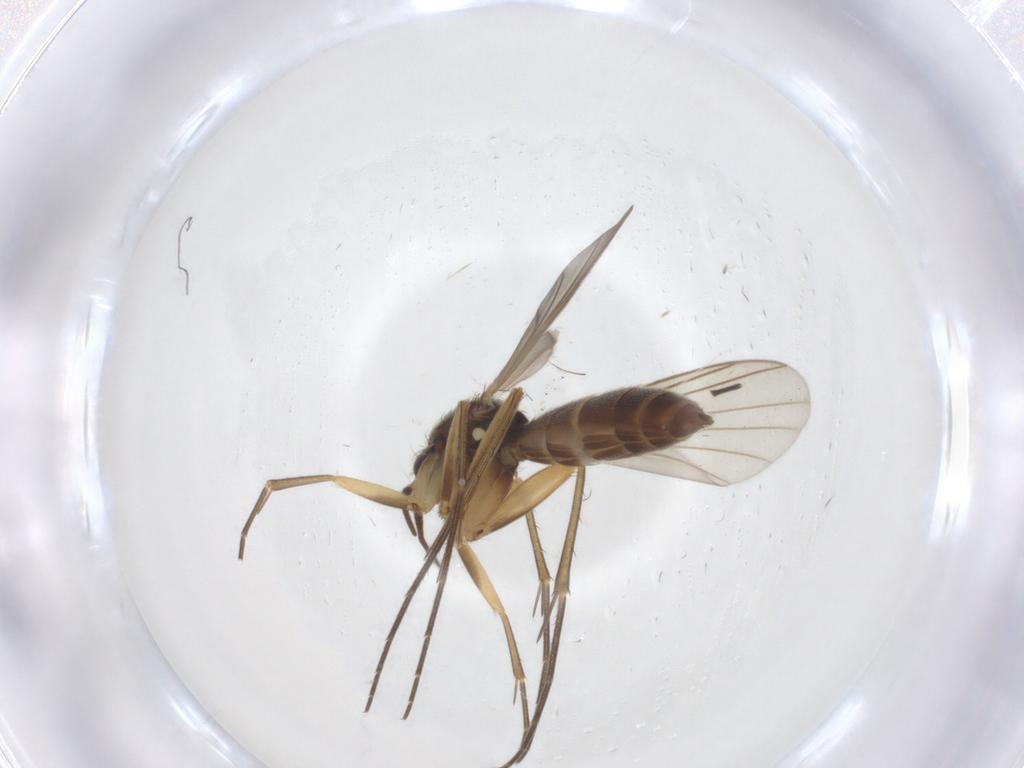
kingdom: Animalia
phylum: Arthropoda
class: Insecta
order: Diptera
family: Mycetophilidae
